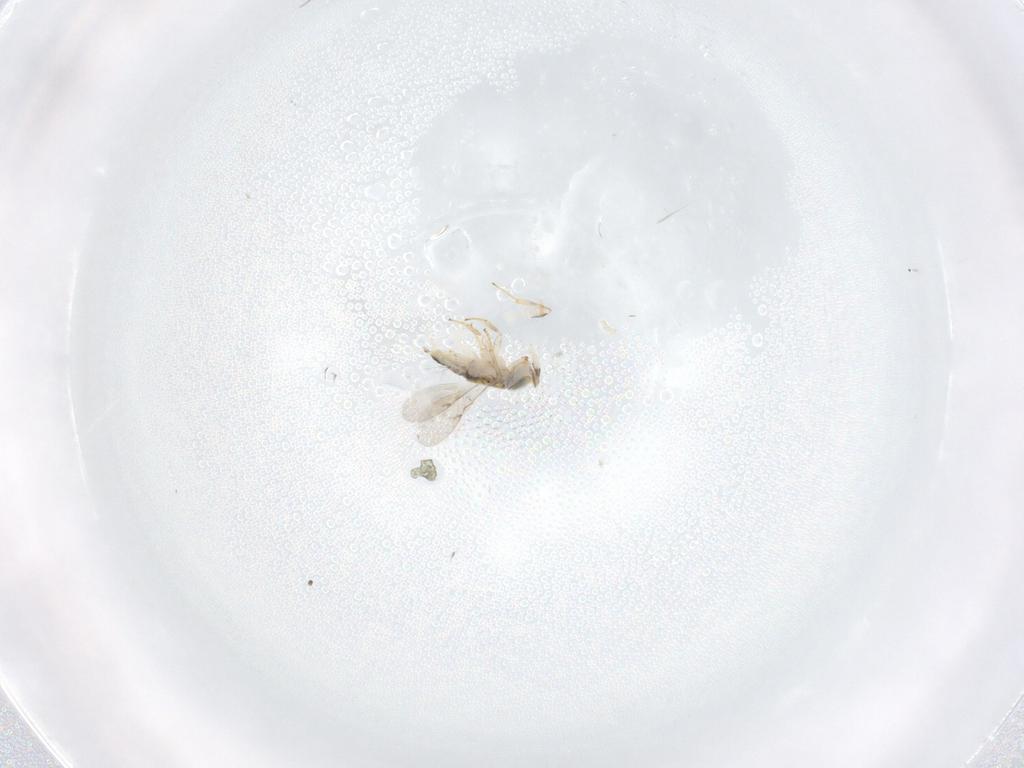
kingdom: Animalia
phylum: Arthropoda
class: Insecta
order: Hymenoptera
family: Encyrtidae
